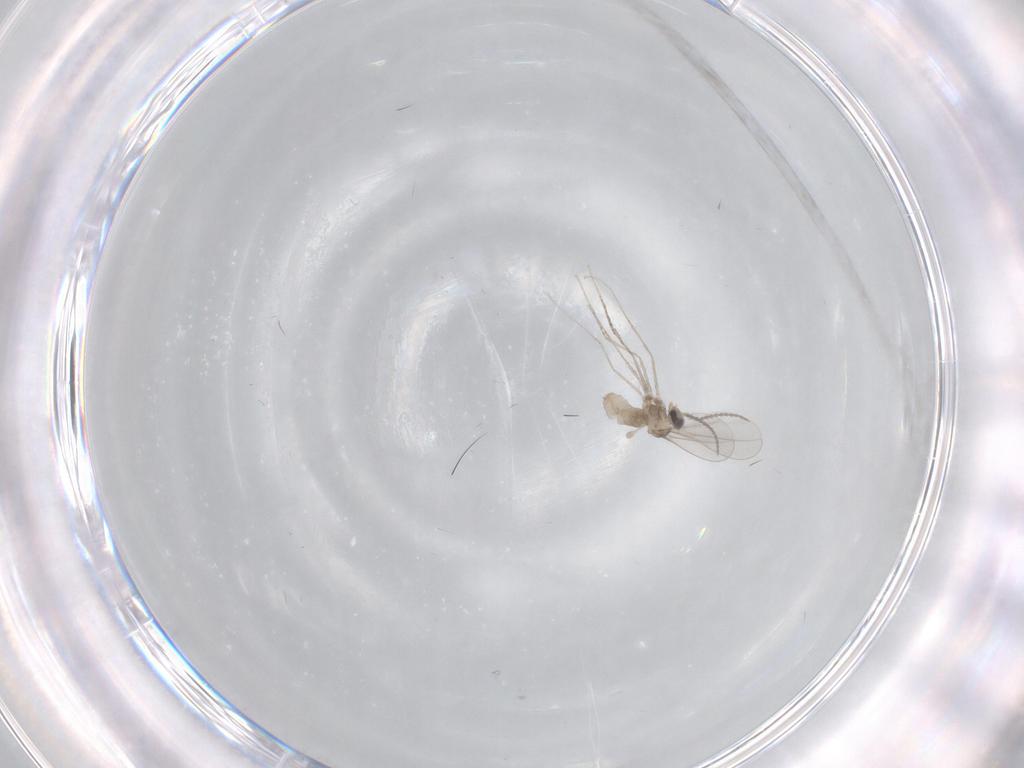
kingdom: Animalia
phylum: Arthropoda
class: Insecta
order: Diptera
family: Cecidomyiidae
